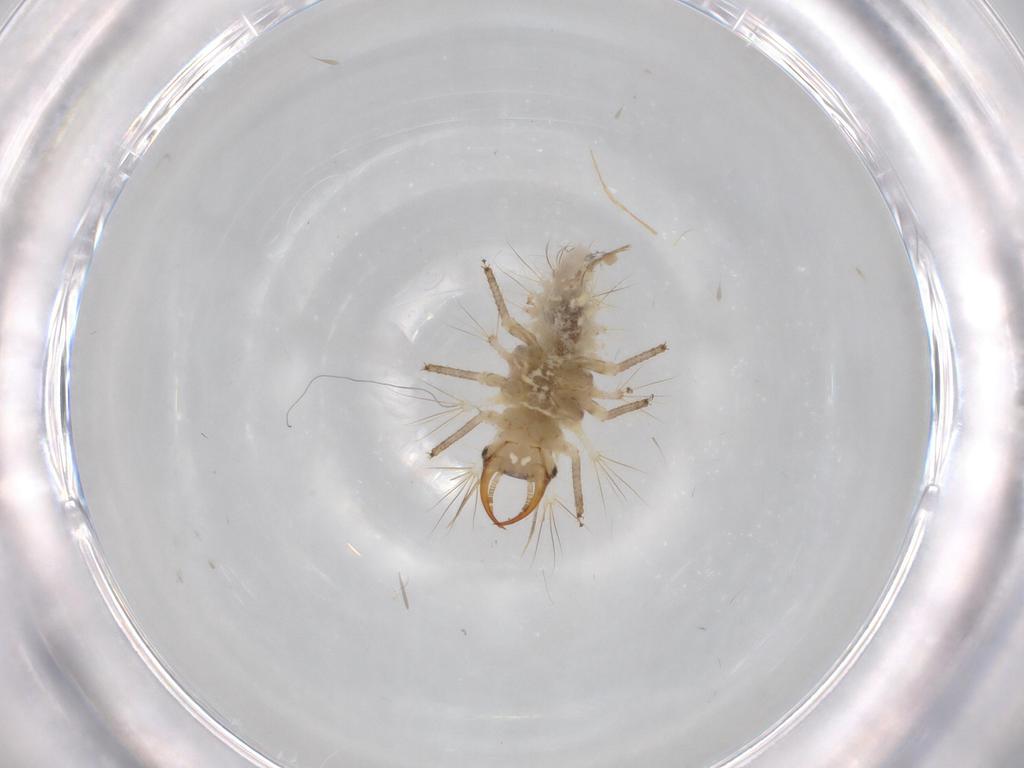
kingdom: Animalia
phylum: Arthropoda
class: Insecta
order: Neuroptera
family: Chrysopidae
